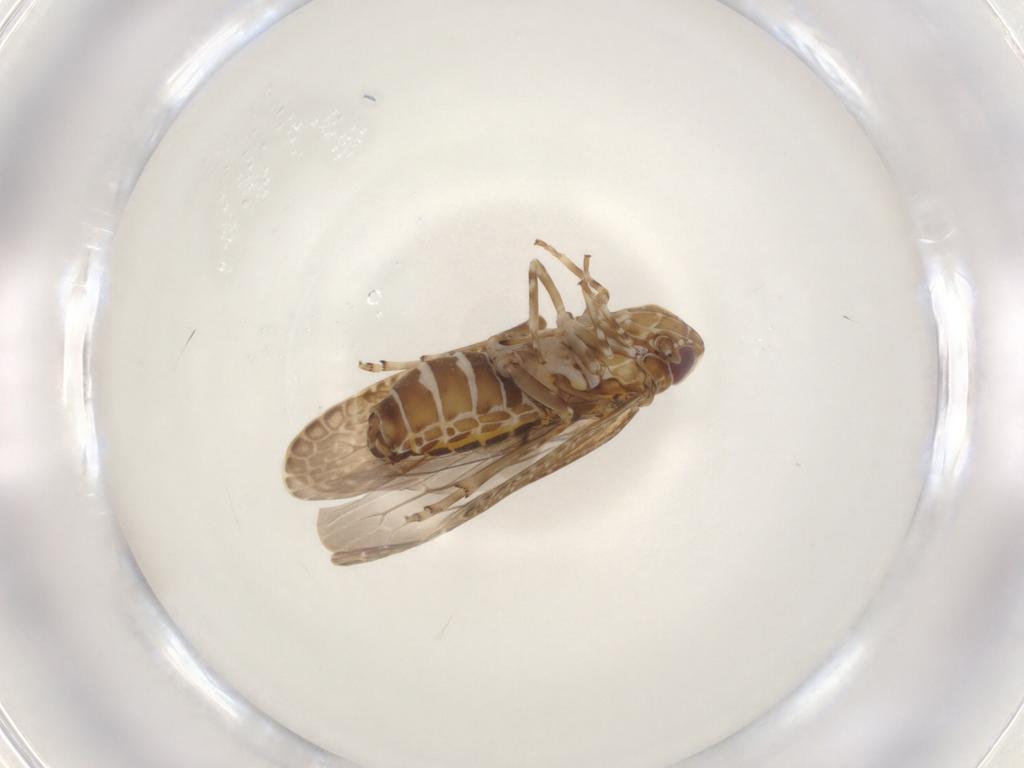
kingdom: Animalia
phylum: Arthropoda
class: Insecta
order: Hemiptera
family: Achilidae
